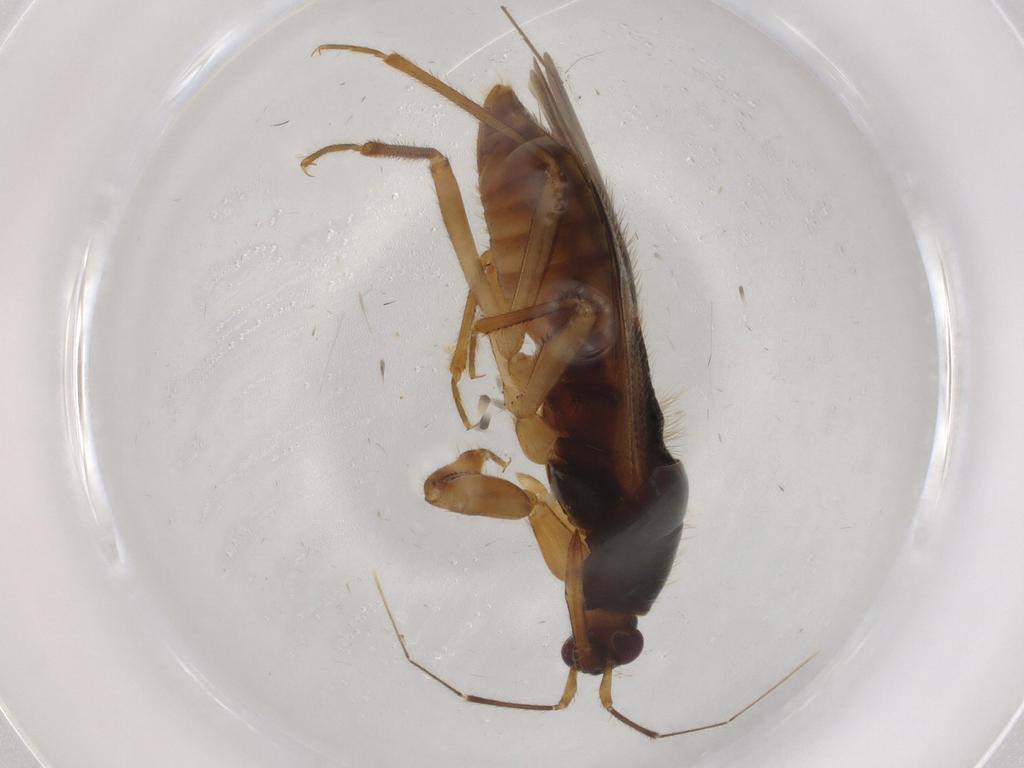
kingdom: Animalia
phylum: Arthropoda
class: Insecta
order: Hemiptera
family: Nabidae
